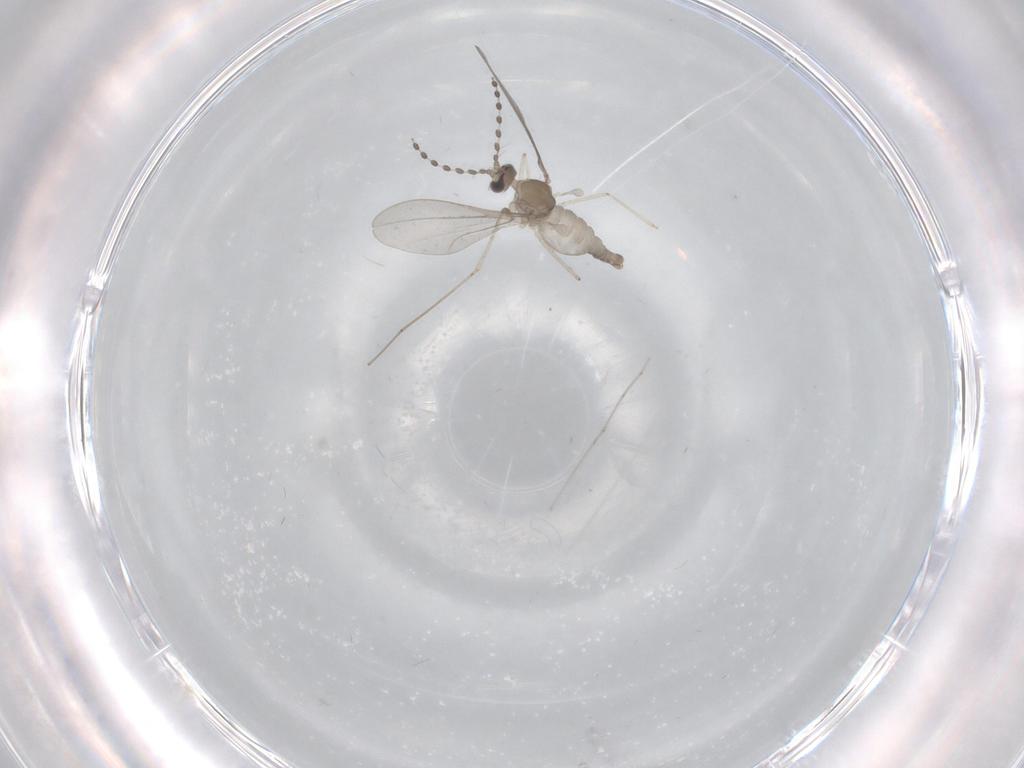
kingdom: Animalia
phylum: Arthropoda
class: Insecta
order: Diptera
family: Cecidomyiidae
